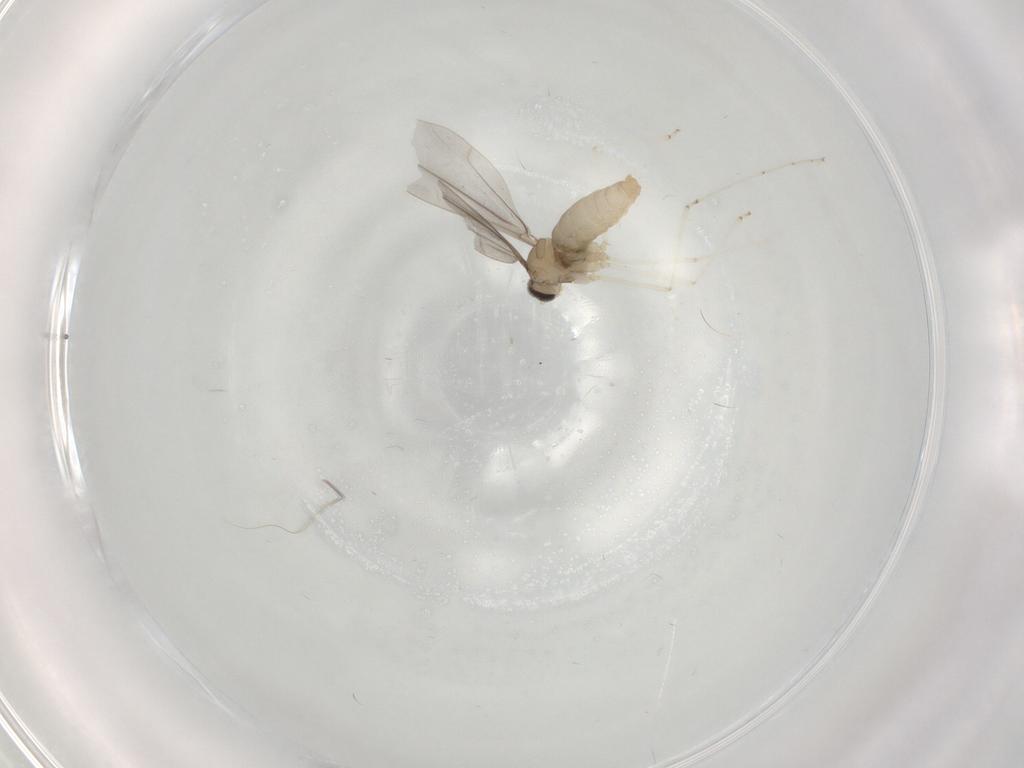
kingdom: Animalia
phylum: Arthropoda
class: Insecta
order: Diptera
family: Cecidomyiidae
